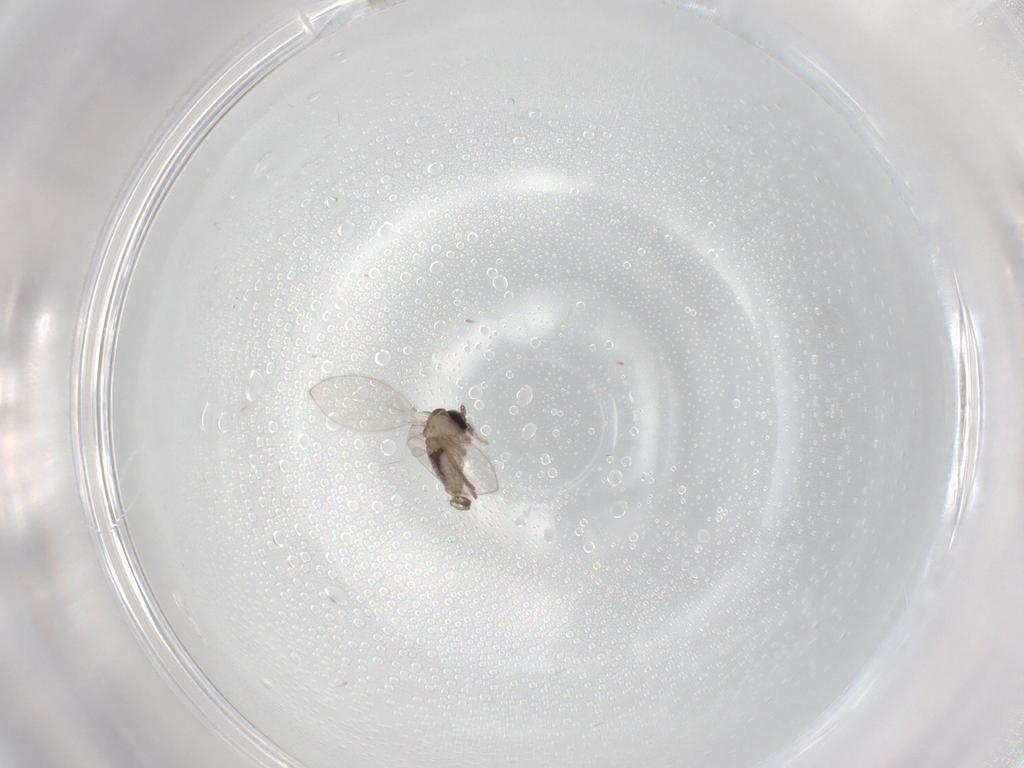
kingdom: Animalia
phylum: Arthropoda
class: Insecta
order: Diptera
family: Psychodidae
